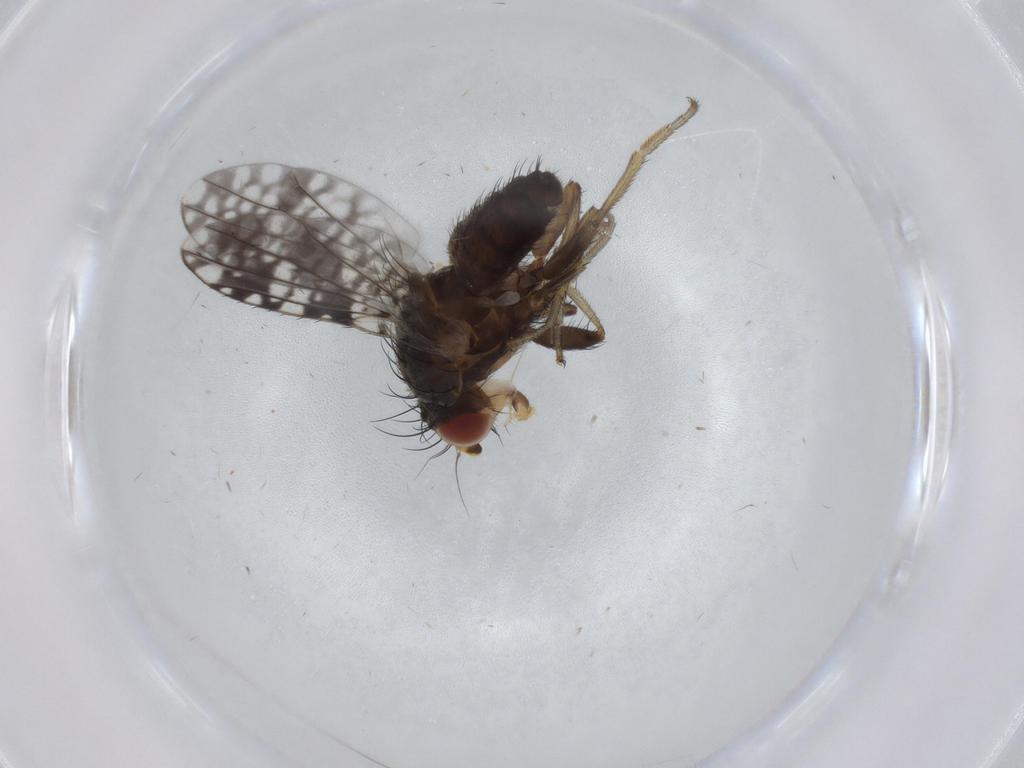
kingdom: Animalia
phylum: Arthropoda
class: Insecta
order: Diptera
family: Tephritidae
